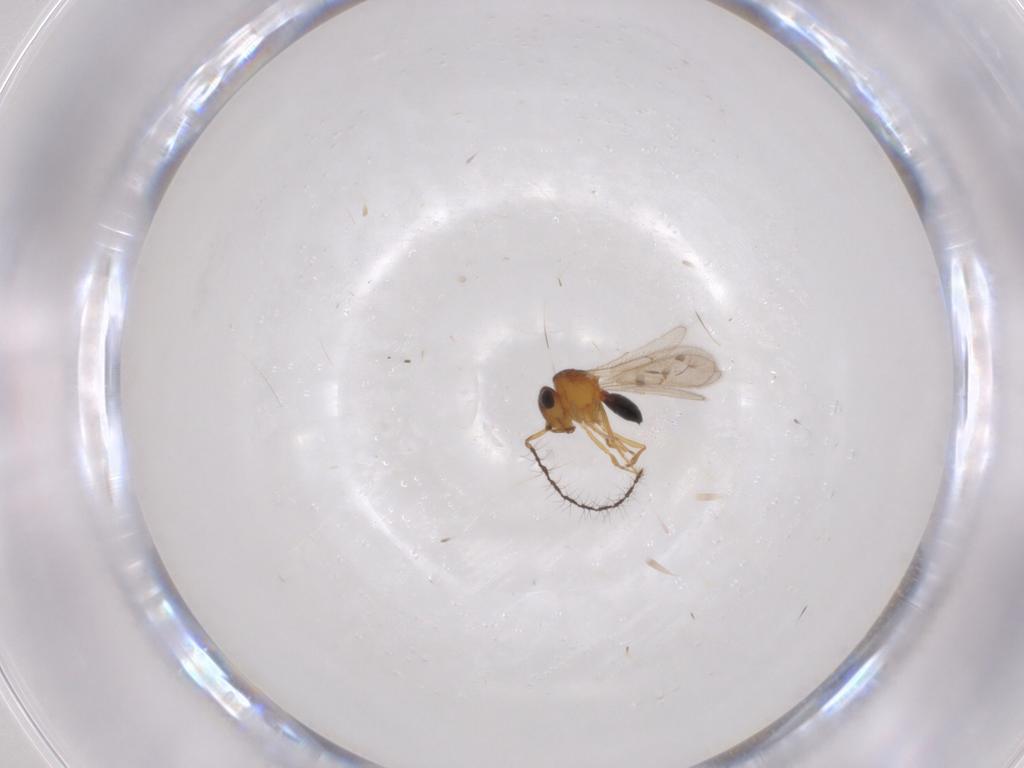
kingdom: Animalia
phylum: Arthropoda
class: Insecta
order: Hymenoptera
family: Scelionidae
